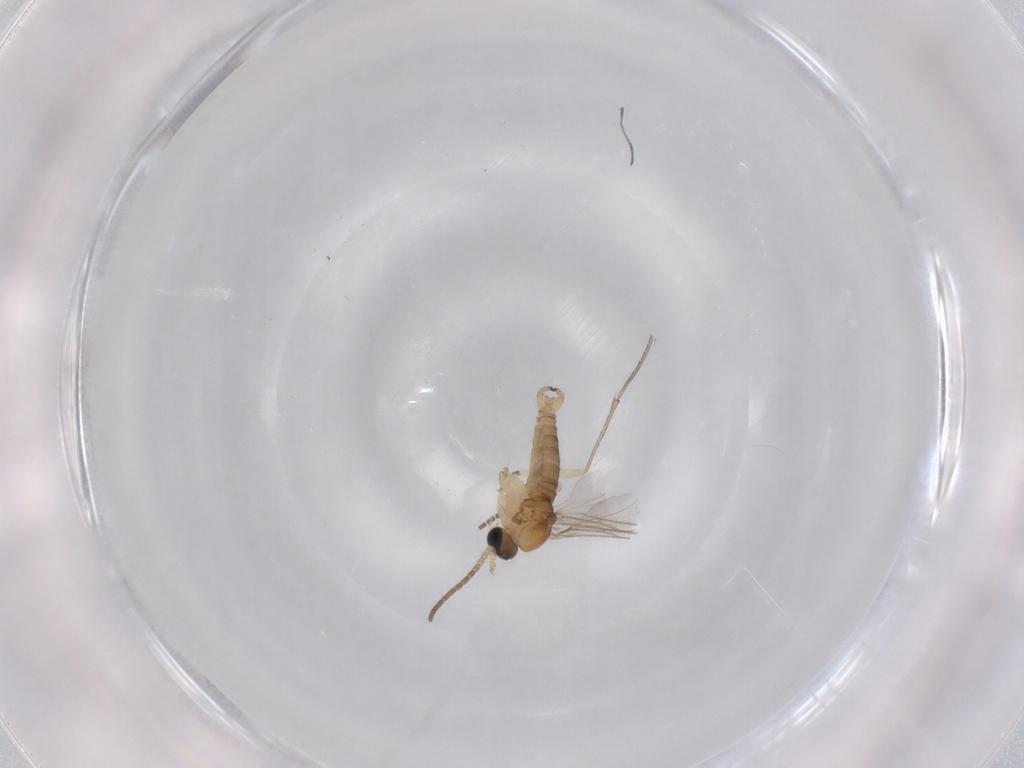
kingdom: Animalia
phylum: Arthropoda
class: Insecta
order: Diptera
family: Sciaridae
